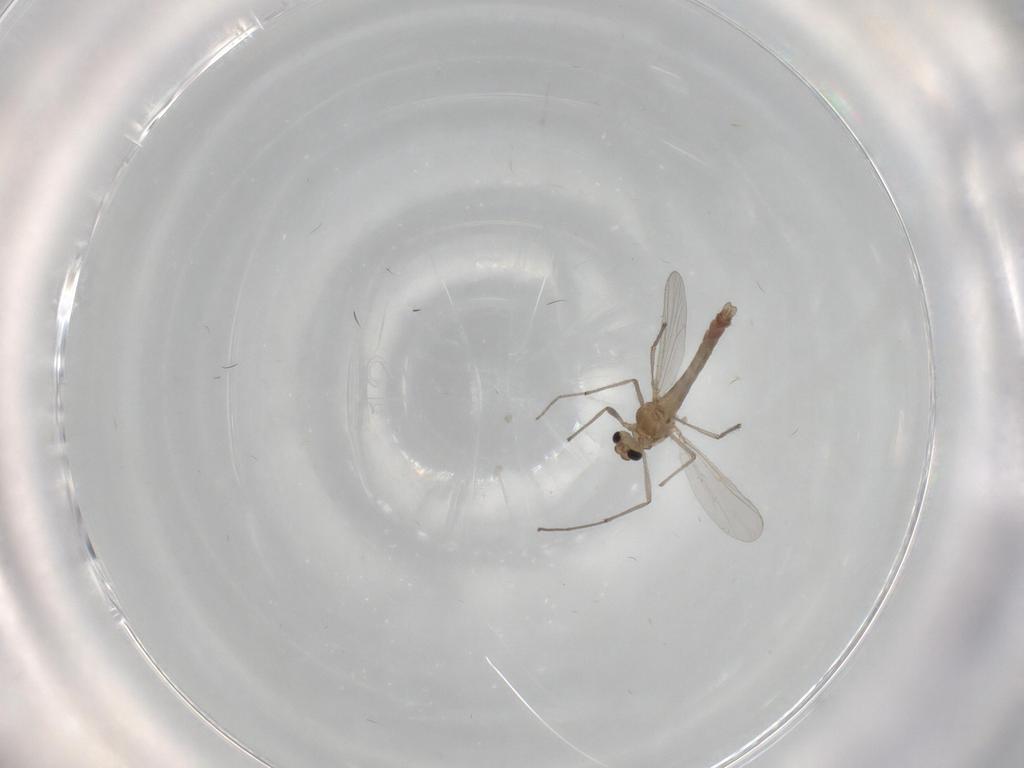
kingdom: Animalia
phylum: Arthropoda
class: Insecta
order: Diptera
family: Chironomidae
